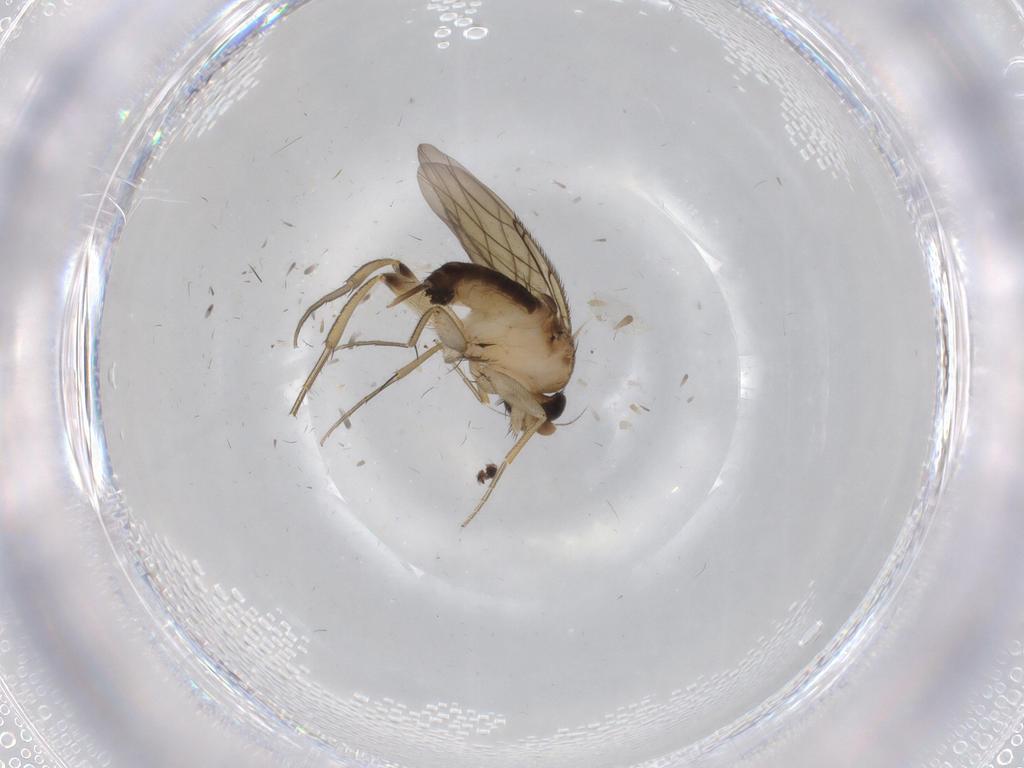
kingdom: Animalia
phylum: Arthropoda
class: Insecta
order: Diptera
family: Phoridae
